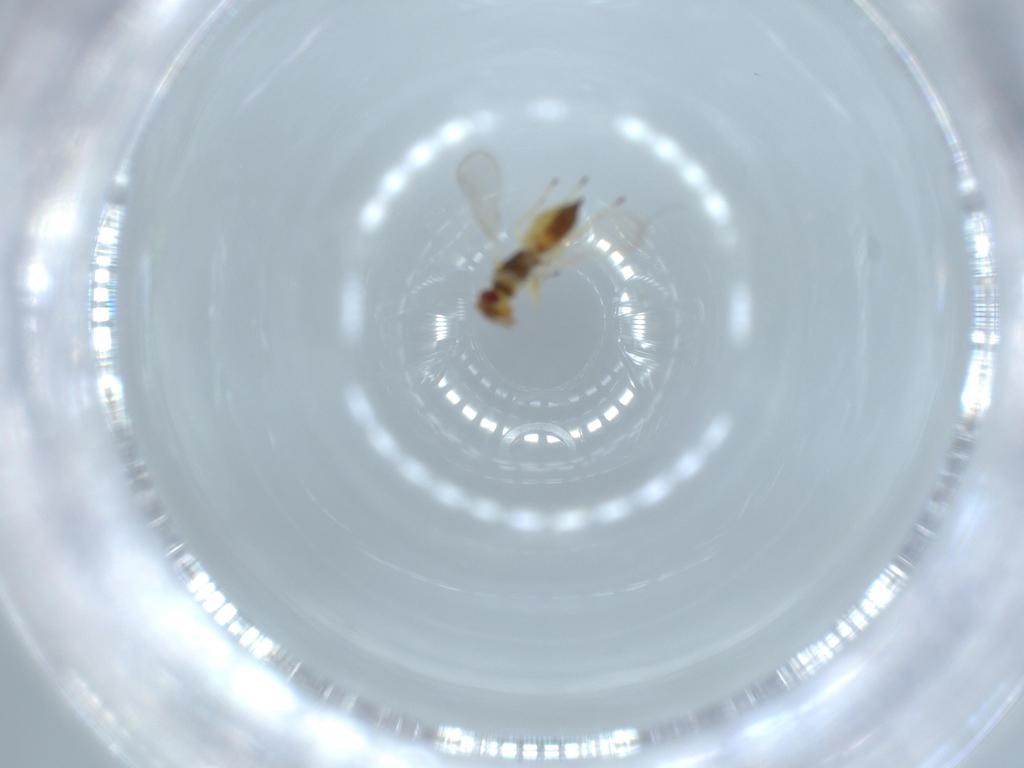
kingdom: Animalia
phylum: Arthropoda
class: Insecta
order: Hymenoptera
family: Eulophidae
